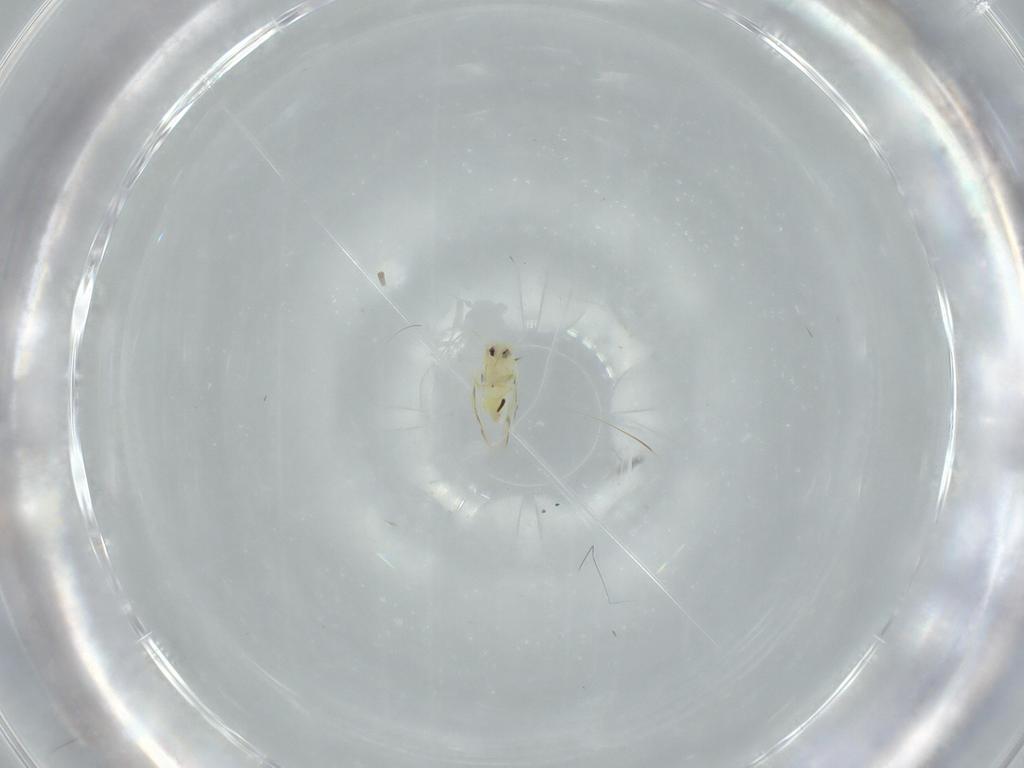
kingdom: Animalia
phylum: Arthropoda
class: Insecta
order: Hemiptera
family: Aleyrodidae
